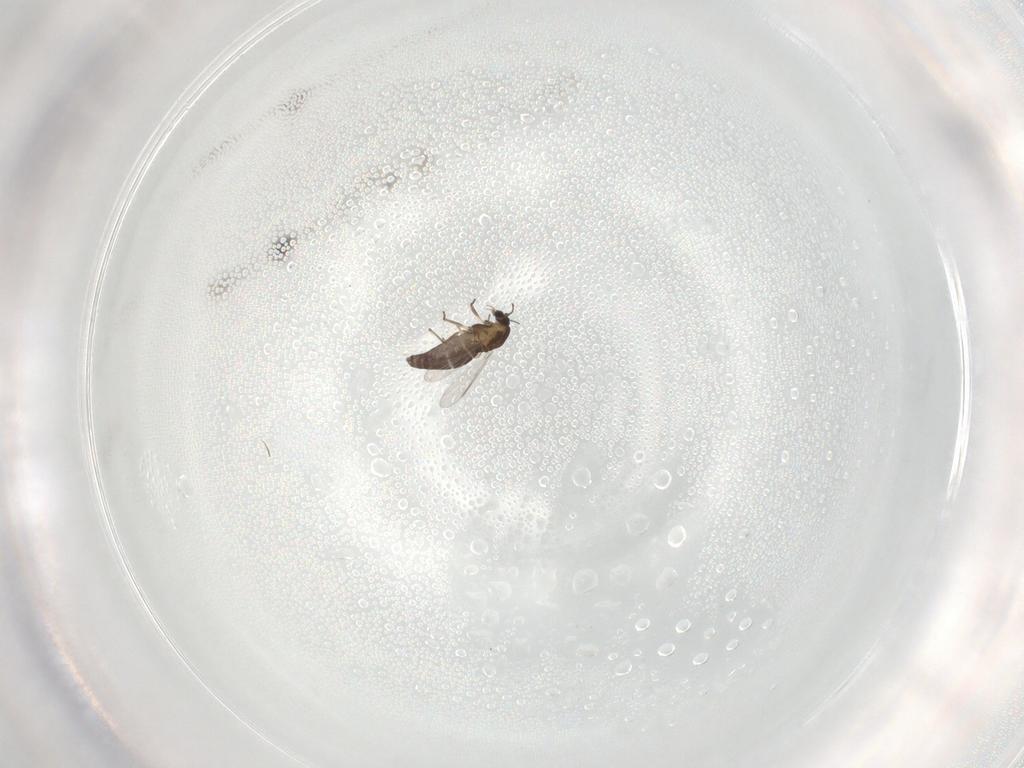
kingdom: Animalia
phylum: Arthropoda
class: Insecta
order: Diptera
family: Chironomidae
